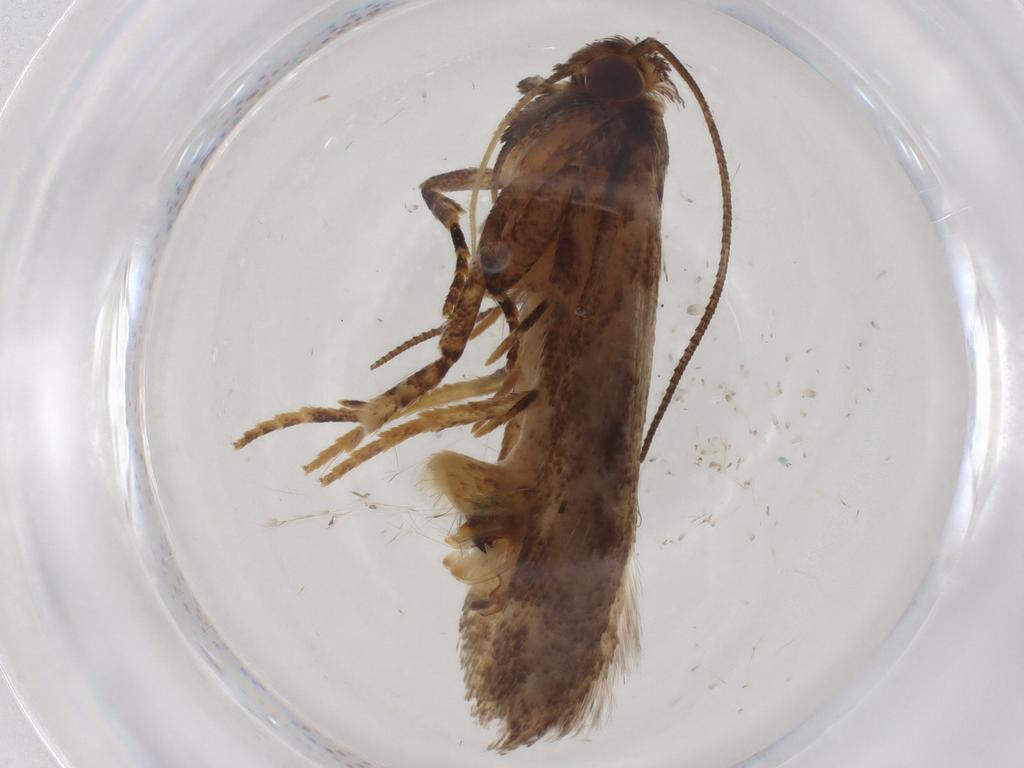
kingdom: Animalia
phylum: Arthropoda
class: Insecta
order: Lepidoptera
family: Gelechiidae
